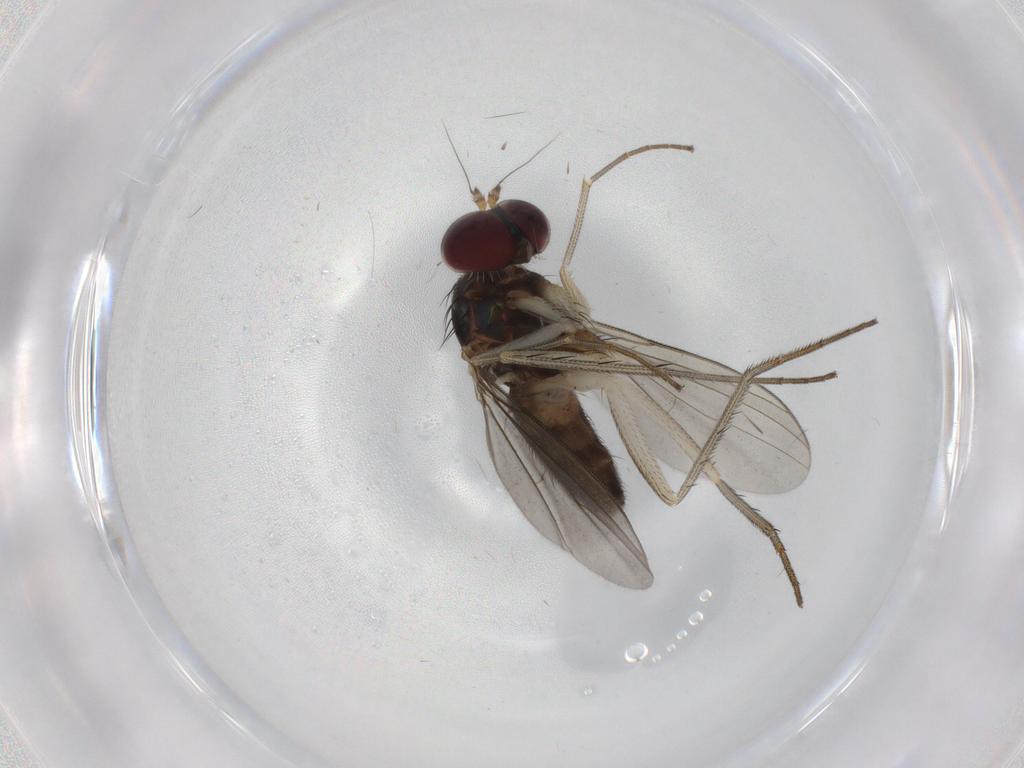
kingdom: Animalia
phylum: Arthropoda
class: Insecta
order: Diptera
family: Dolichopodidae
